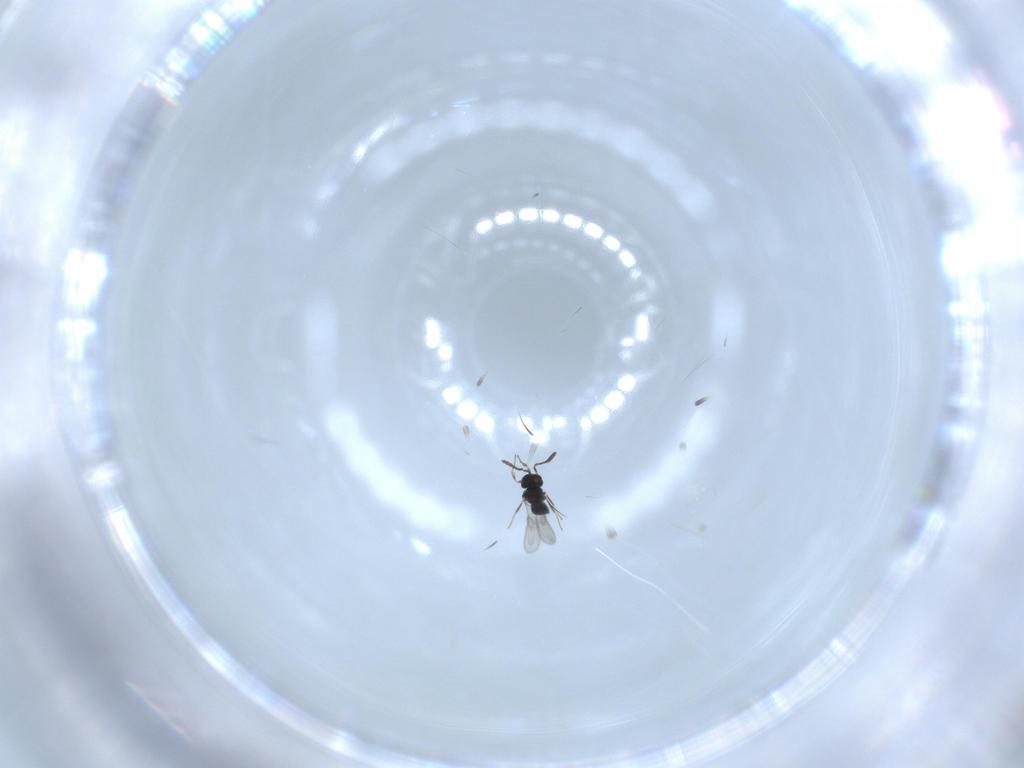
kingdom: Animalia
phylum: Arthropoda
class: Insecta
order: Hymenoptera
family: Scelionidae
